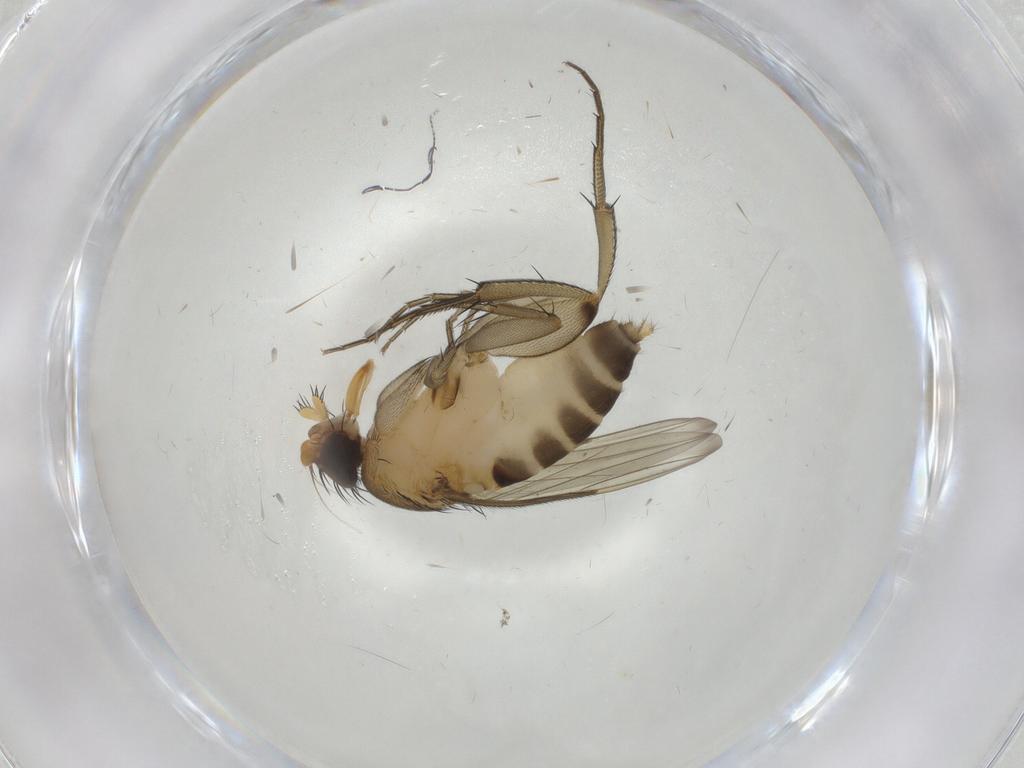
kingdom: Animalia
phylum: Arthropoda
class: Insecta
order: Diptera
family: Phoridae
